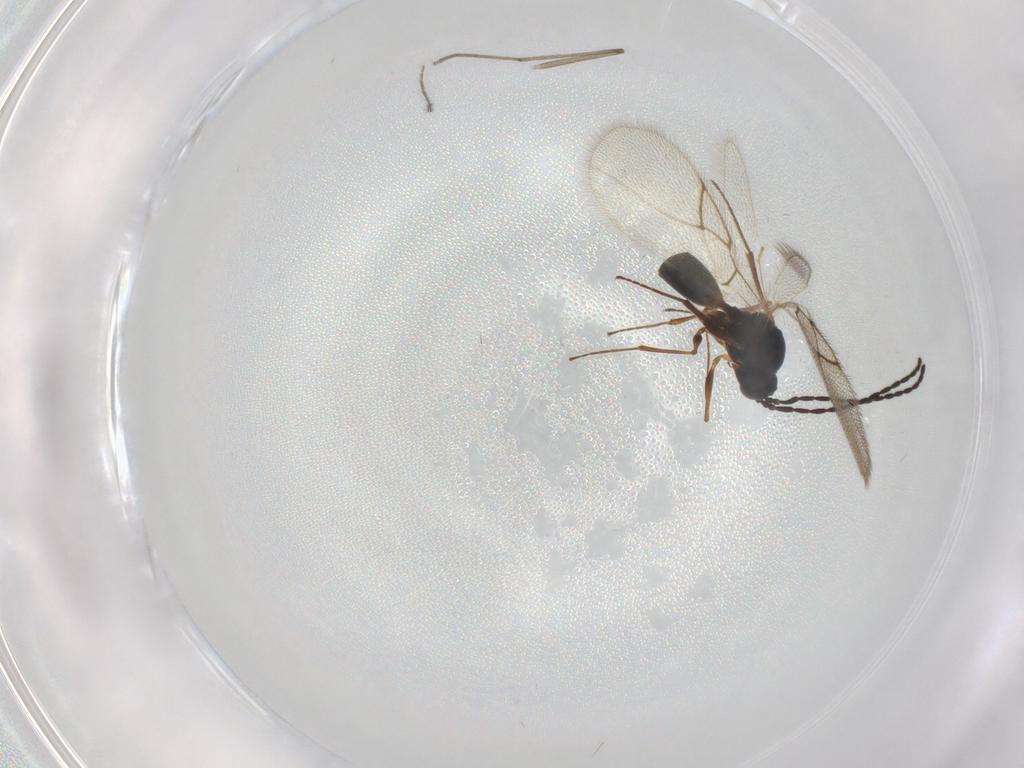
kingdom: Animalia
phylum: Arthropoda
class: Insecta
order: Hymenoptera
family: Figitidae
